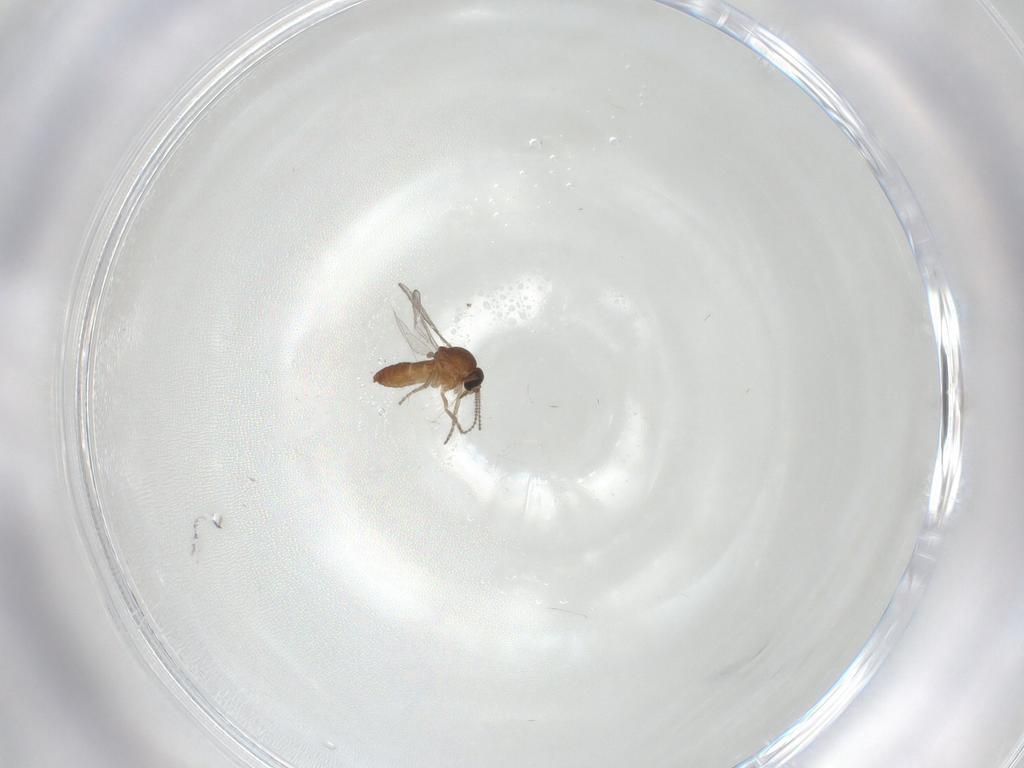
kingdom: Animalia
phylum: Arthropoda
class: Insecta
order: Diptera
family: Ceratopogonidae
